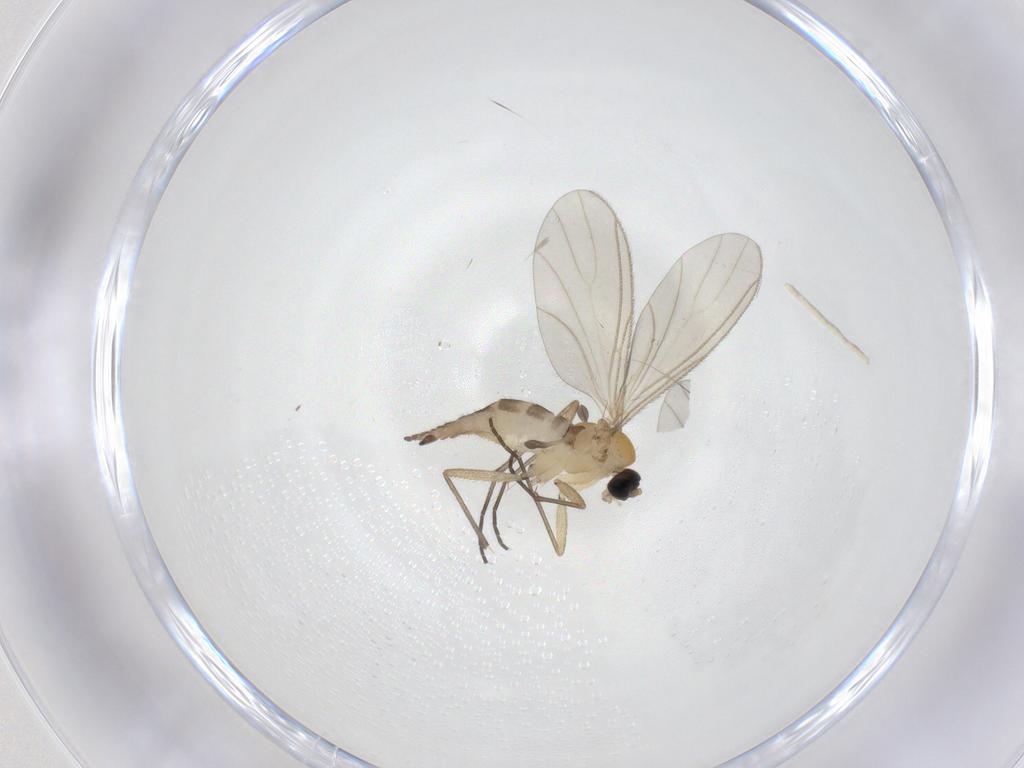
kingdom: Animalia
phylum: Arthropoda
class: Insecta
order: Diptera
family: Sciaridae
